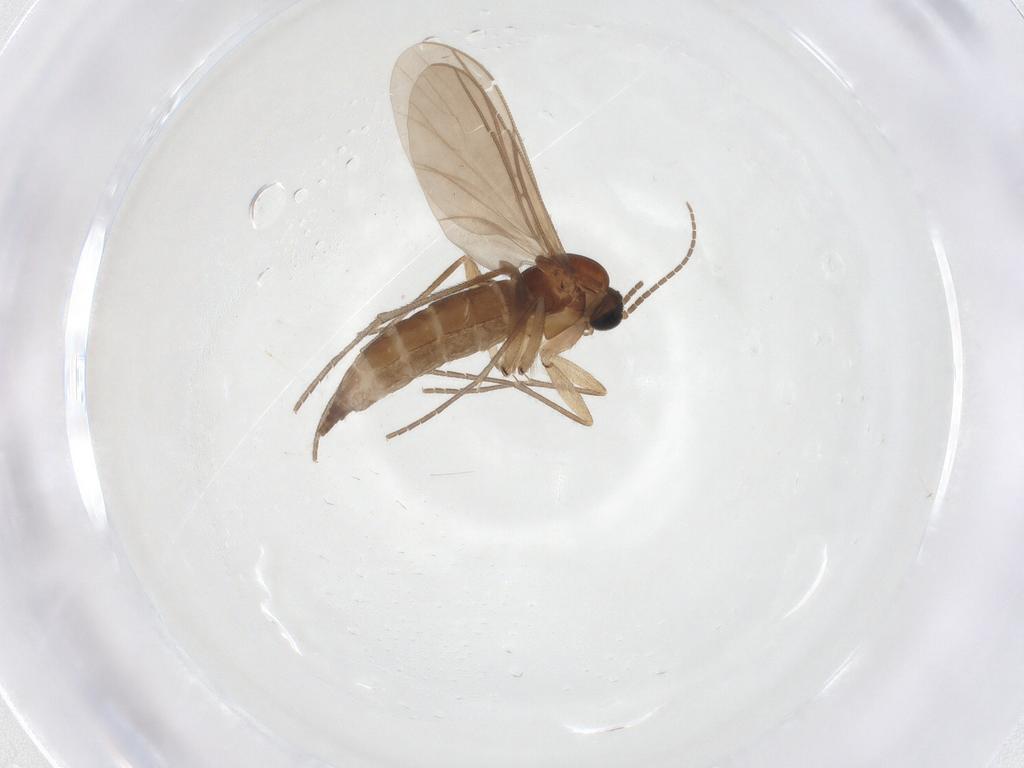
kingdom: Animalia
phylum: Arthropoda
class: Insecta
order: Diptera
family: Sciaridae
